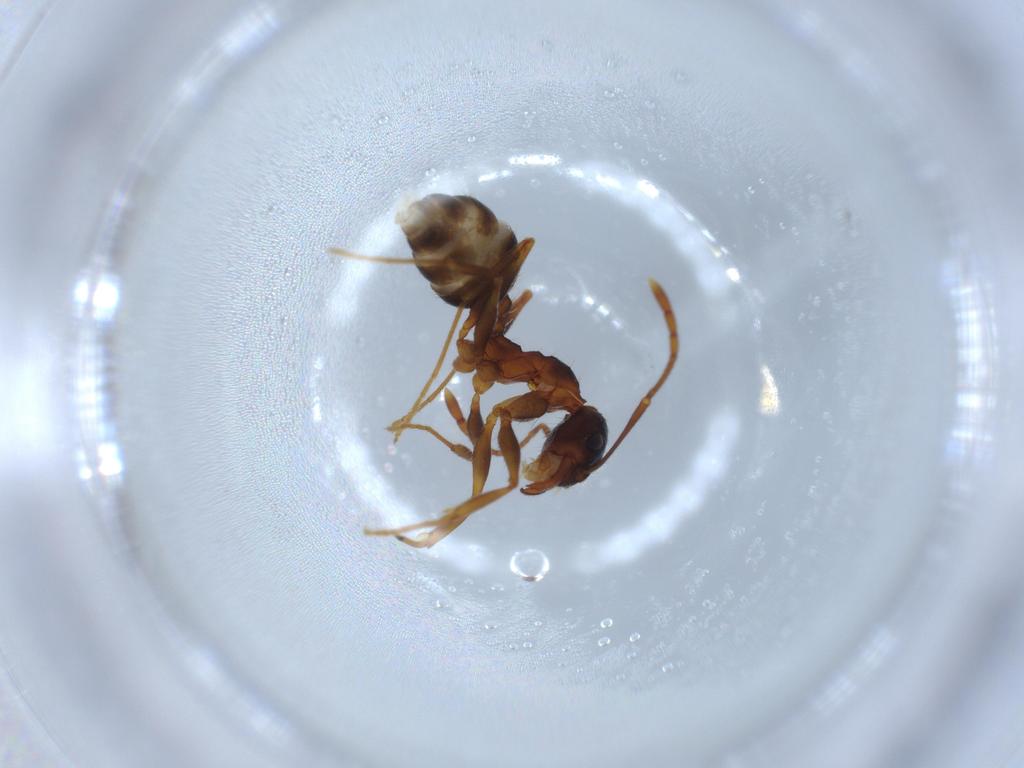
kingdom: Animalia
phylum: Arthropoda
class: Insecta
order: Hymenoptera
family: Formicidae
